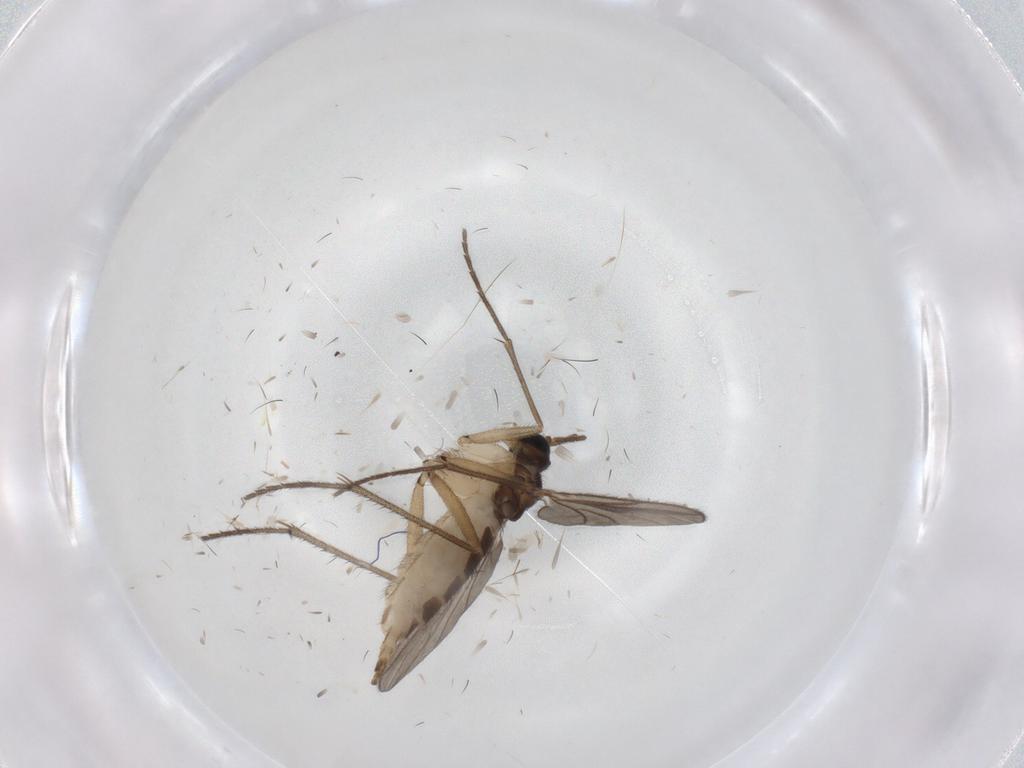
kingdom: Animalia
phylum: Arthropoda
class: Insecta
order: Diptera
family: Sciaridae
